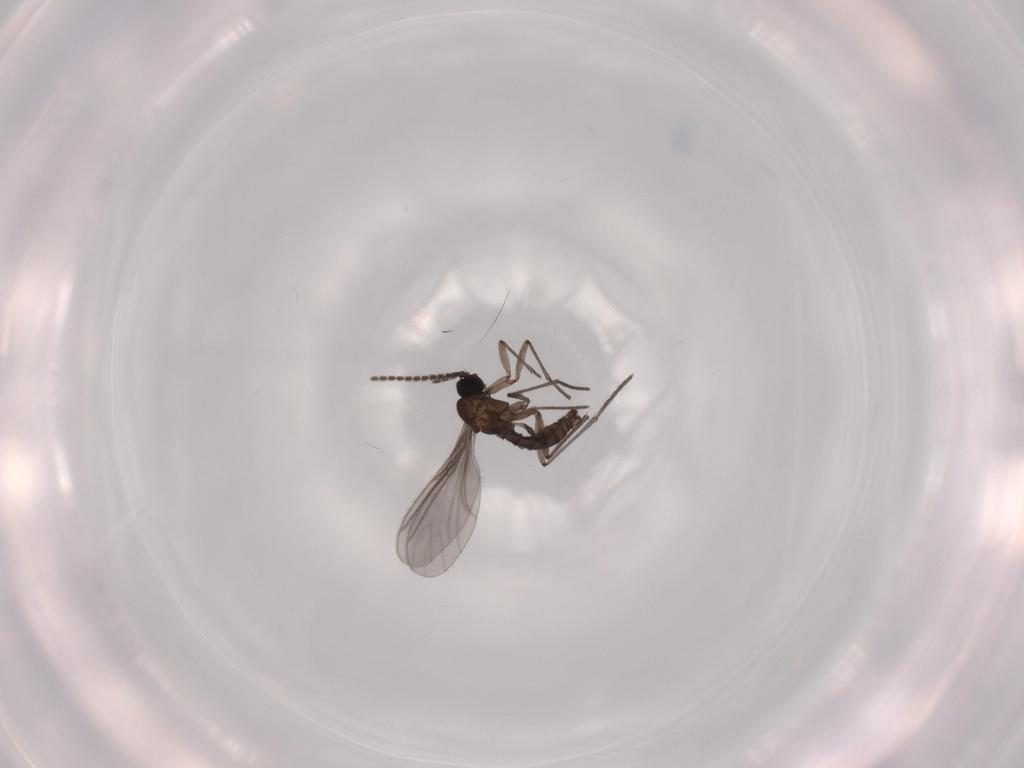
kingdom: Animalia
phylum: Arthropoda
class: Insecta
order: Diptera
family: Sciaridae
